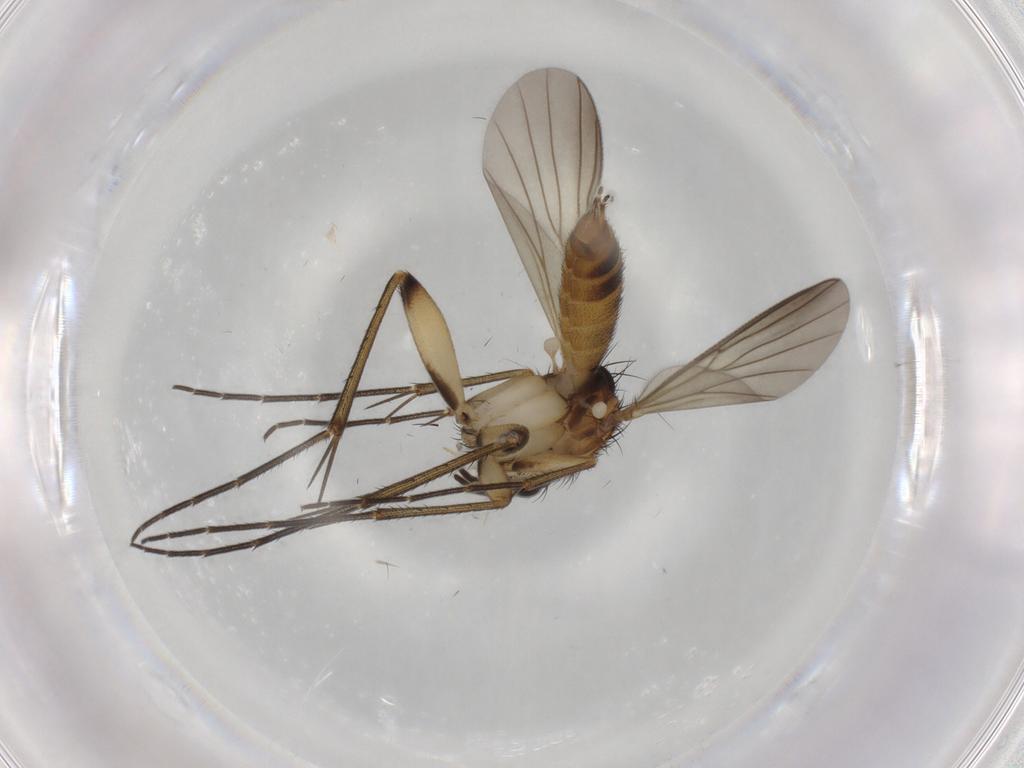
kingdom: Animalia
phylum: Arthropoda
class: Insecta
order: Diptera
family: Mycetophilidae
